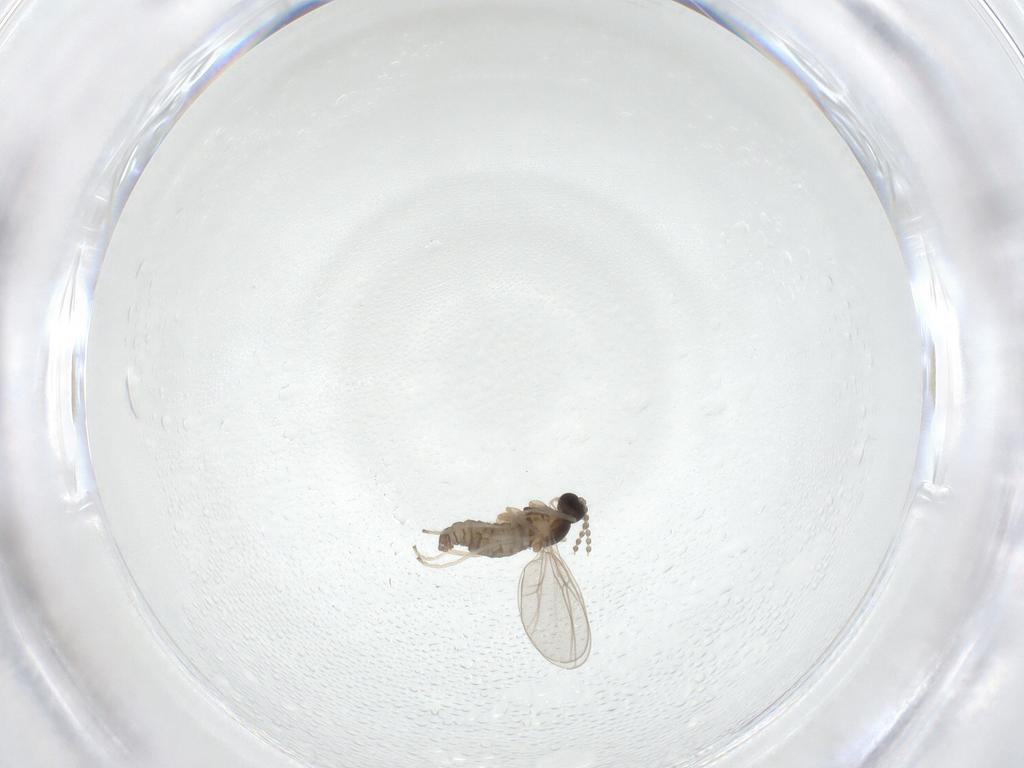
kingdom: Animalia
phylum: Arthropoda
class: Insecta
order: Diptera
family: Cecidomyiidae
